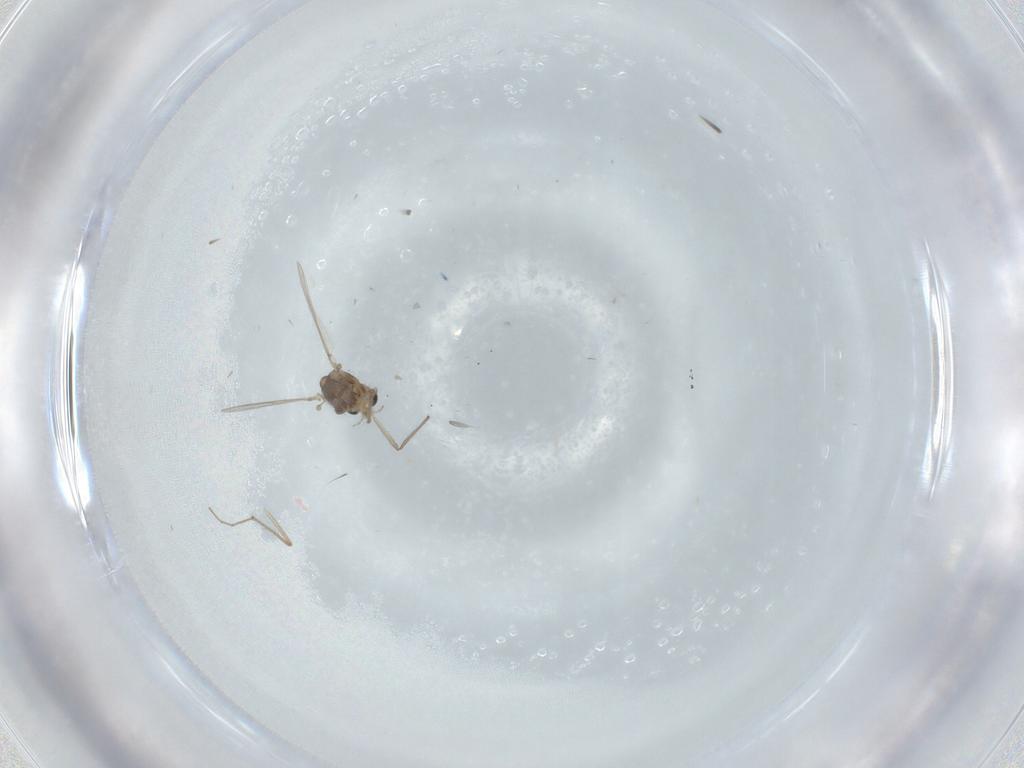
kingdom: Animalia
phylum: Arthropoda
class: Insecta
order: Diptera
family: Chironomidae
